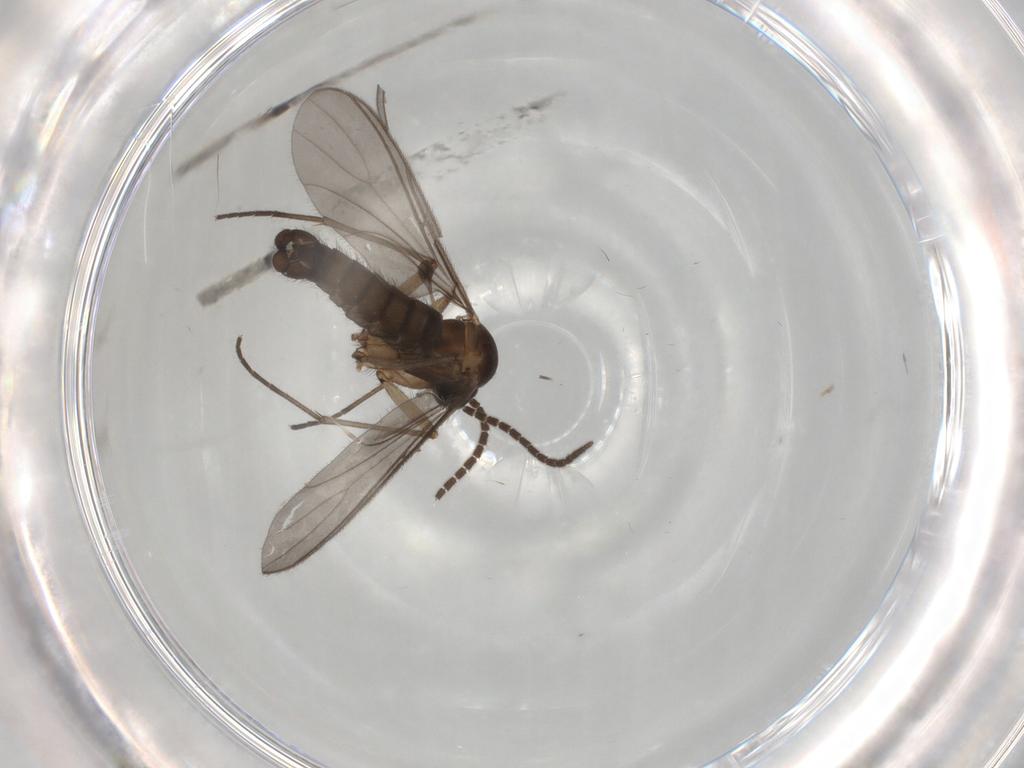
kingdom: Animalia
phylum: Arthropoda
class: Insecta
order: Diptera
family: Sciaridae
